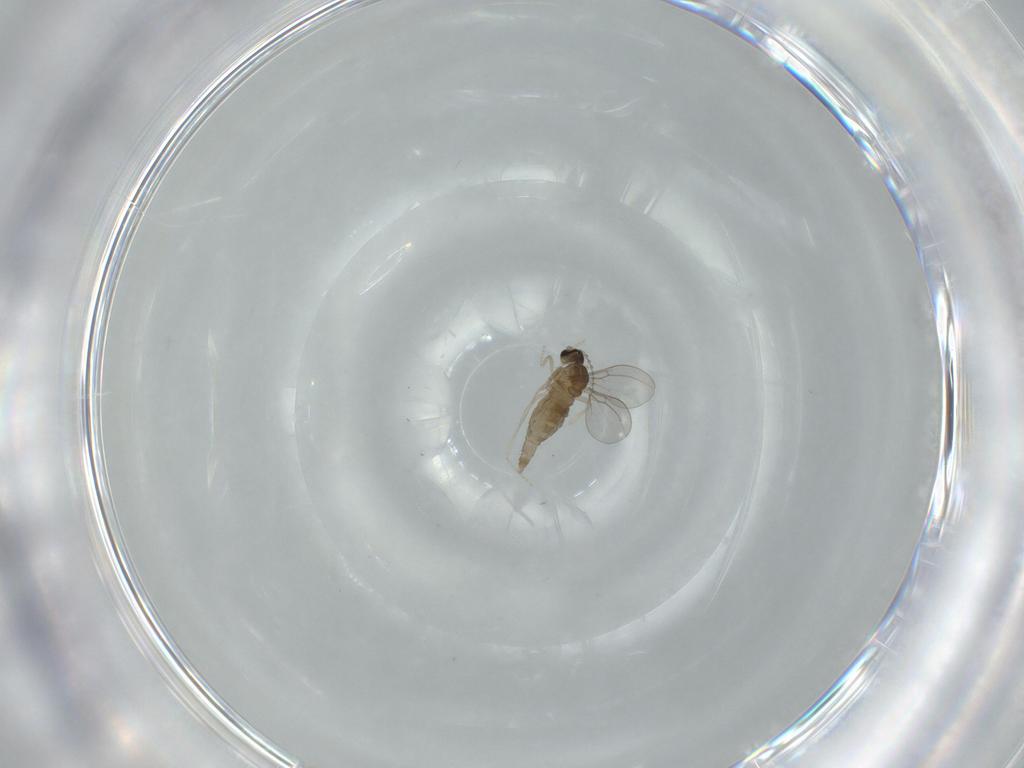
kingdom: Animalia
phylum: Arthropoda
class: Insecta
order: Diptera
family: Cecidomyiidae
